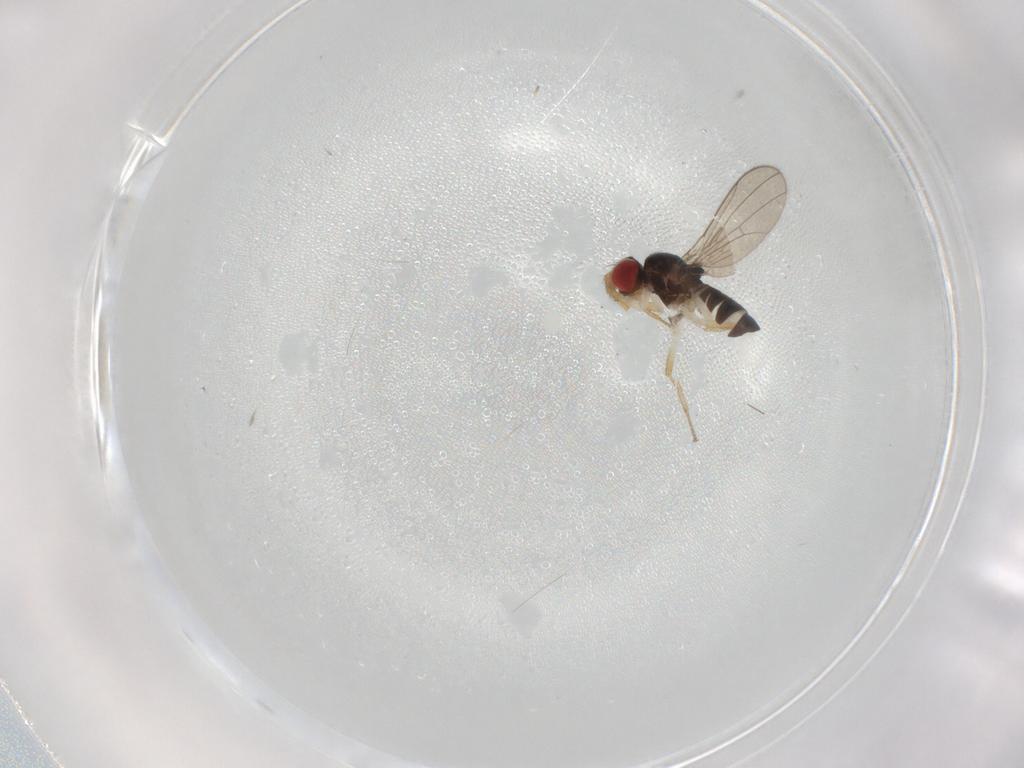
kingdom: Animalia
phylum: Arthropoda
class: Insecta
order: Diptera
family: Drosophilidae
